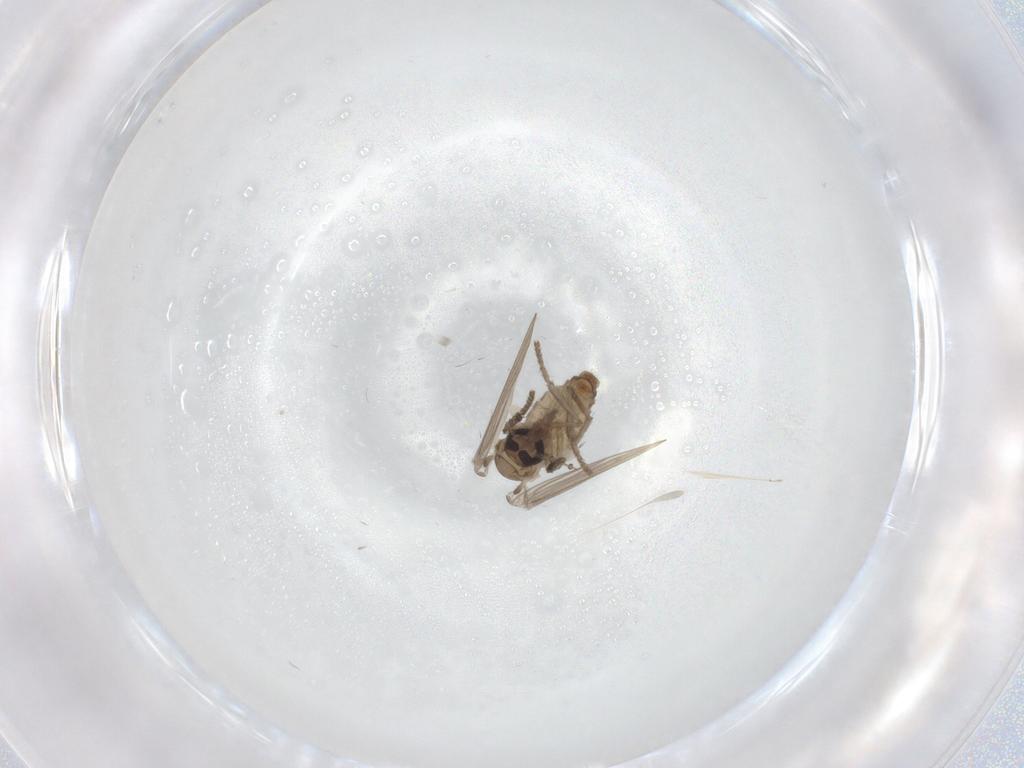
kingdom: Animalia
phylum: Arthropoda
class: Insecta
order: Diptera
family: Psychodidae
